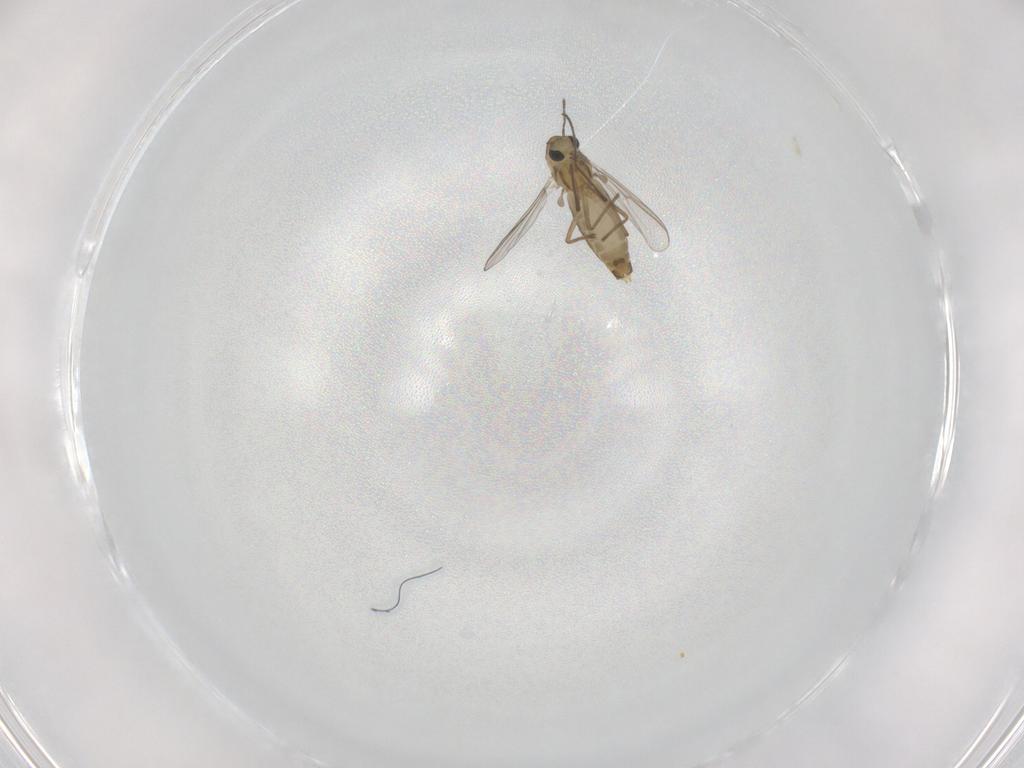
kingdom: Animalia
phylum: Arthropoda
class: Insecta
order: Diptera
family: Chironomidae
